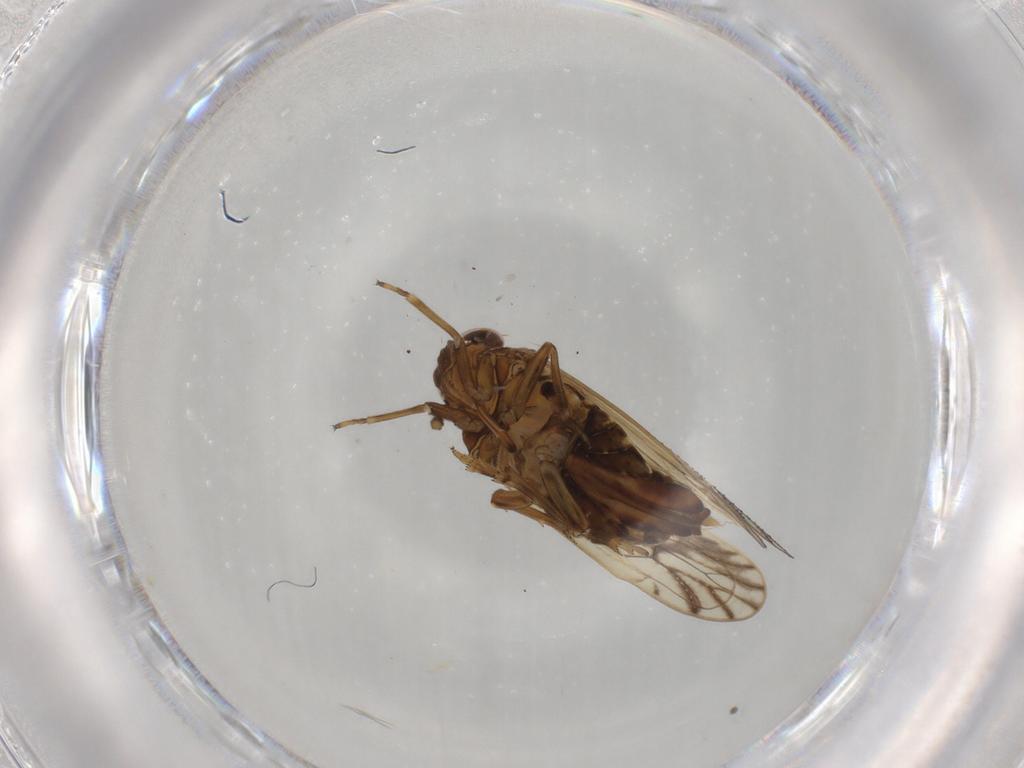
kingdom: Animalia
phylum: Arthropoda
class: Insecta
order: Hemiptera
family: Delphacidae
